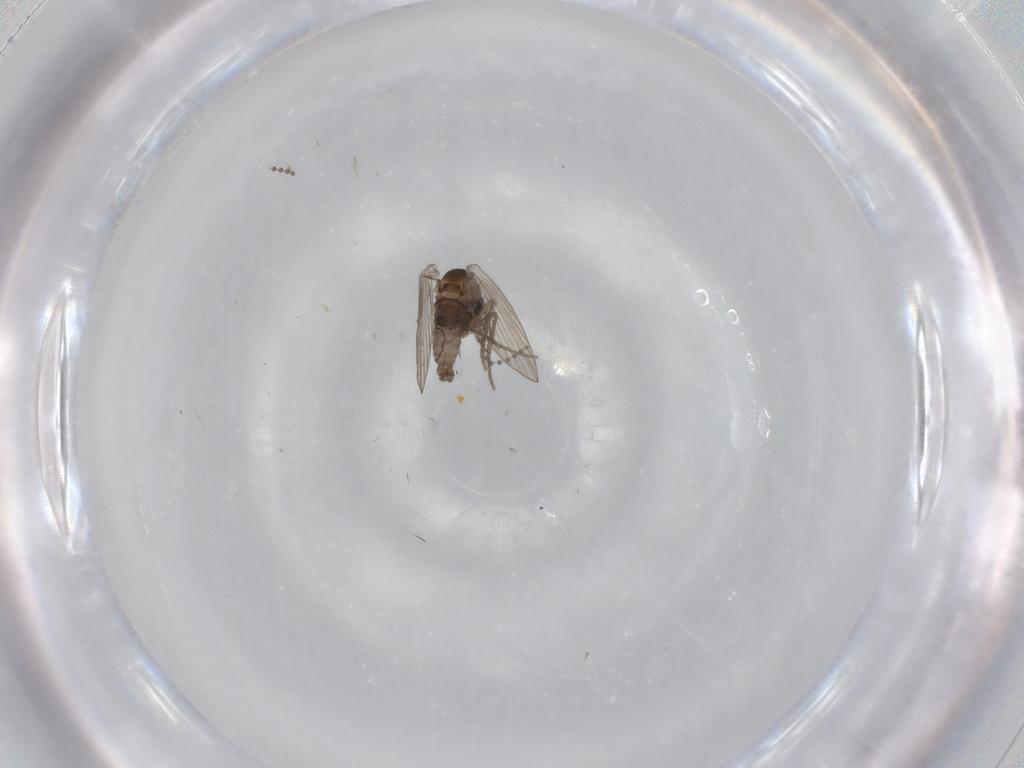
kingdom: Animalia
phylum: Arthropoda
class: Insecta
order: Diptera
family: Psychodidae
